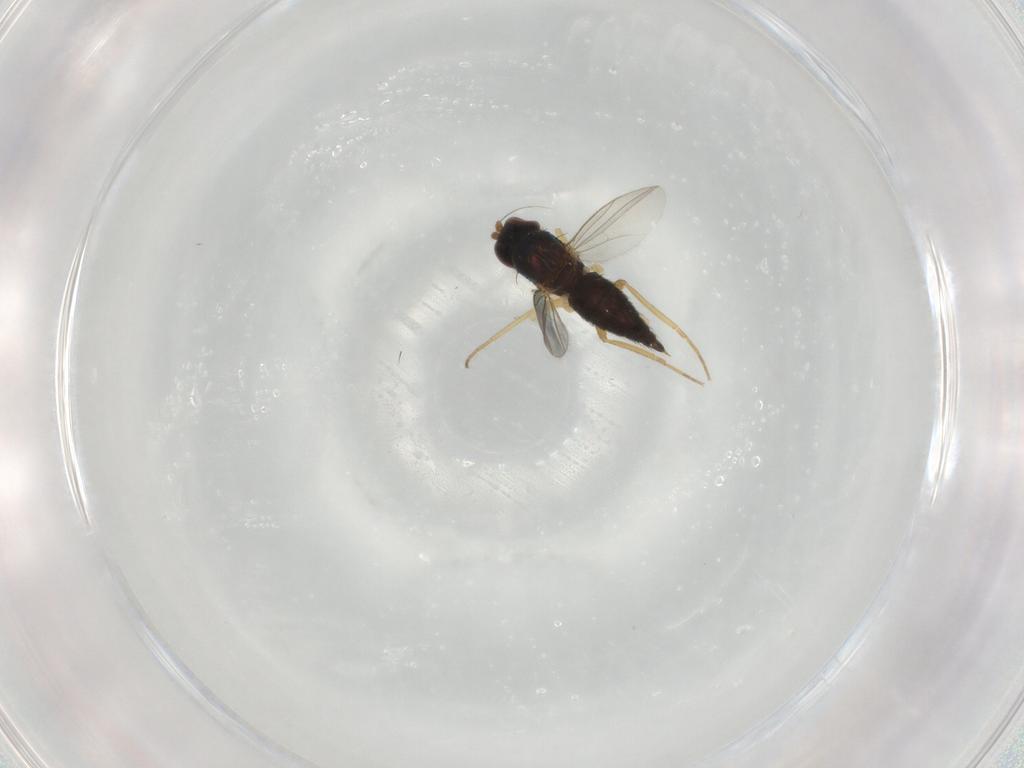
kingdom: Animalia
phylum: Arthropoda
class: Insecta
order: Diptera
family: Dolichopodidae
